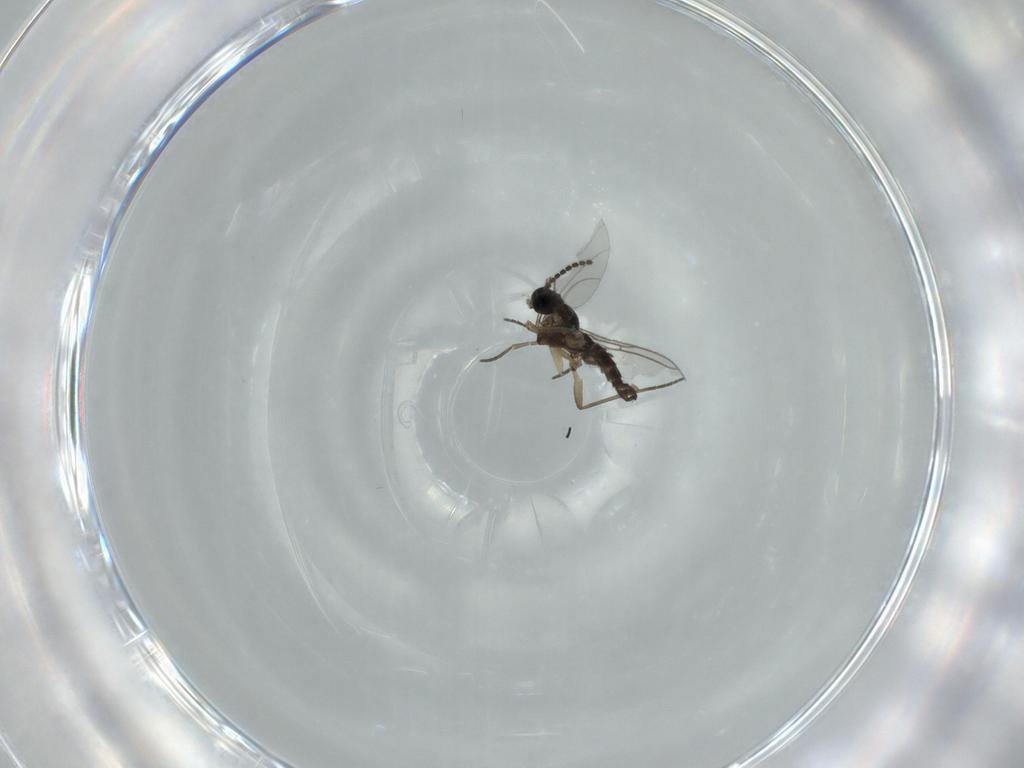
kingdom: Animalia
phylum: Arthropoda
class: Insecta
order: Diptera
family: Sciaridae
